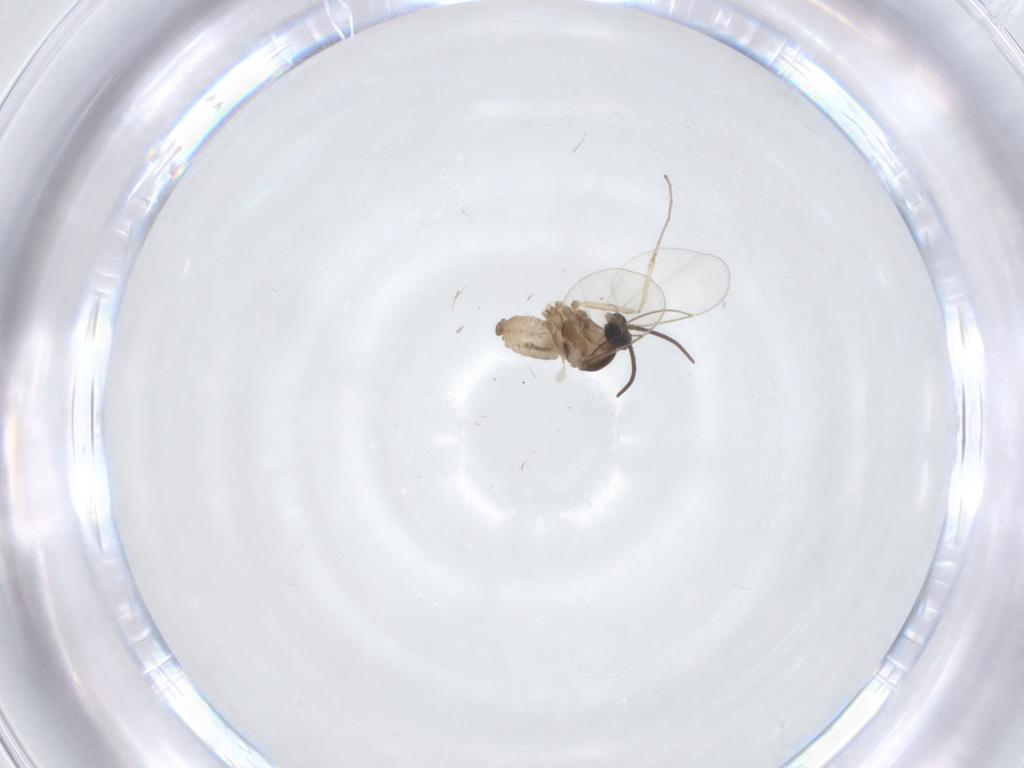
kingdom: Animalia
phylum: Arthropoda
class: Insecta
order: Diptera
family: Cecidomyiidae
